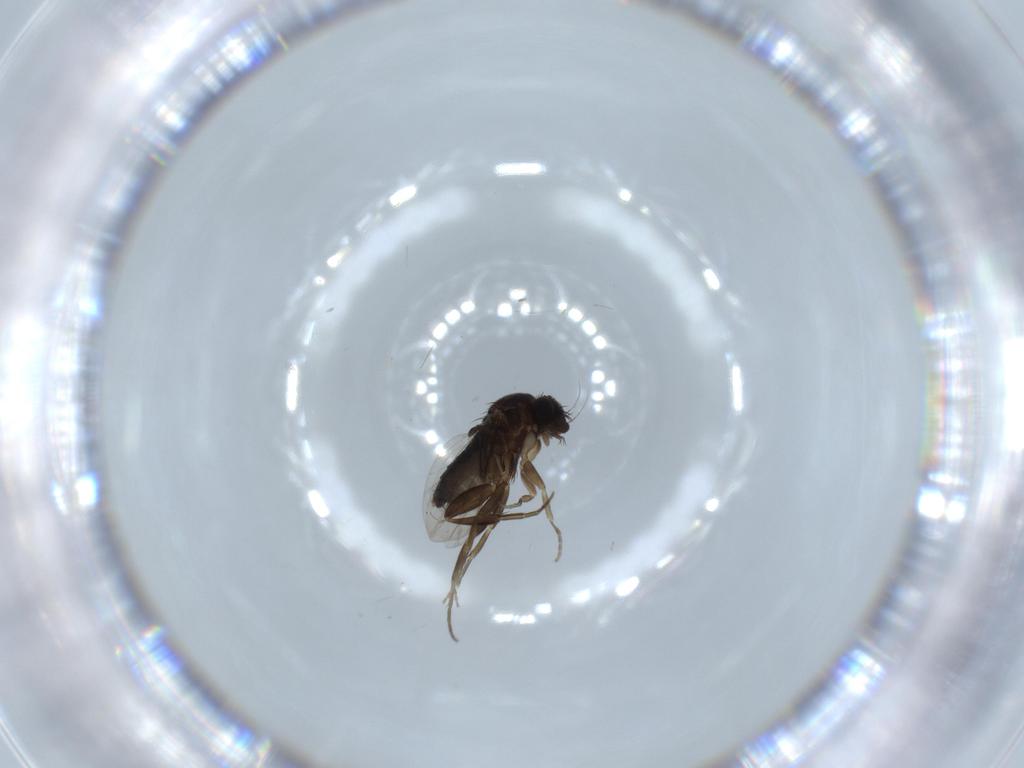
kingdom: Animalia
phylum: Arthropoda
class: Insecta
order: Diptera
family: Phoridae
